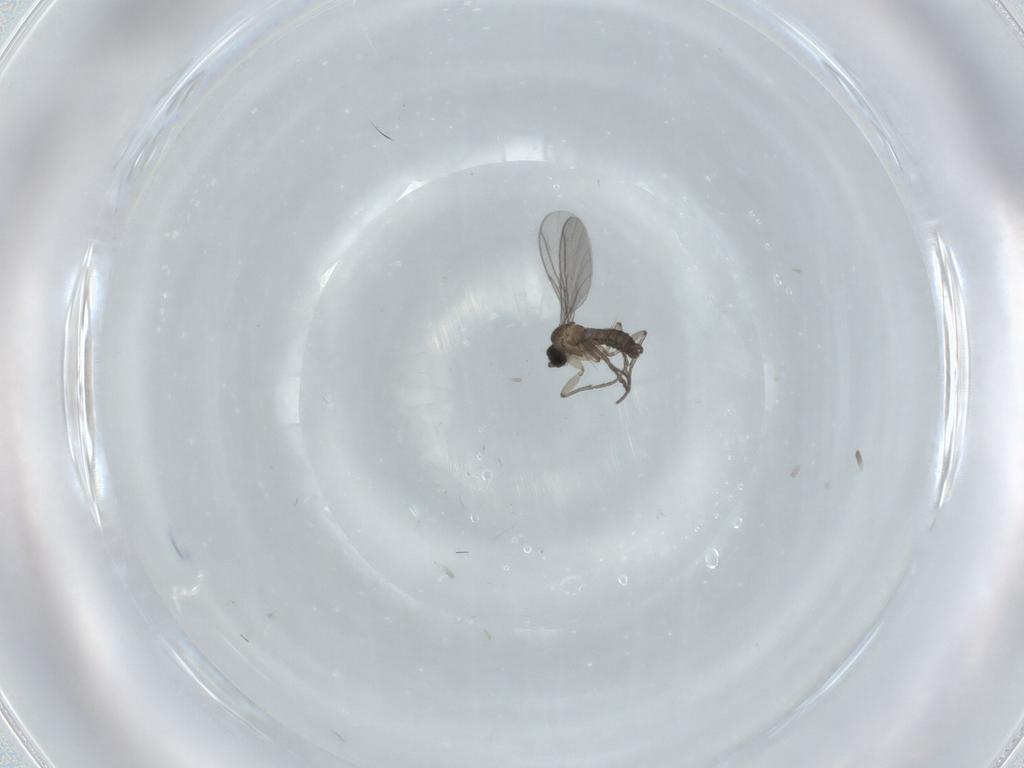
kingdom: Animalia
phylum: Arthropoda
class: Insecta
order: Diptera
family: Sciaridae
